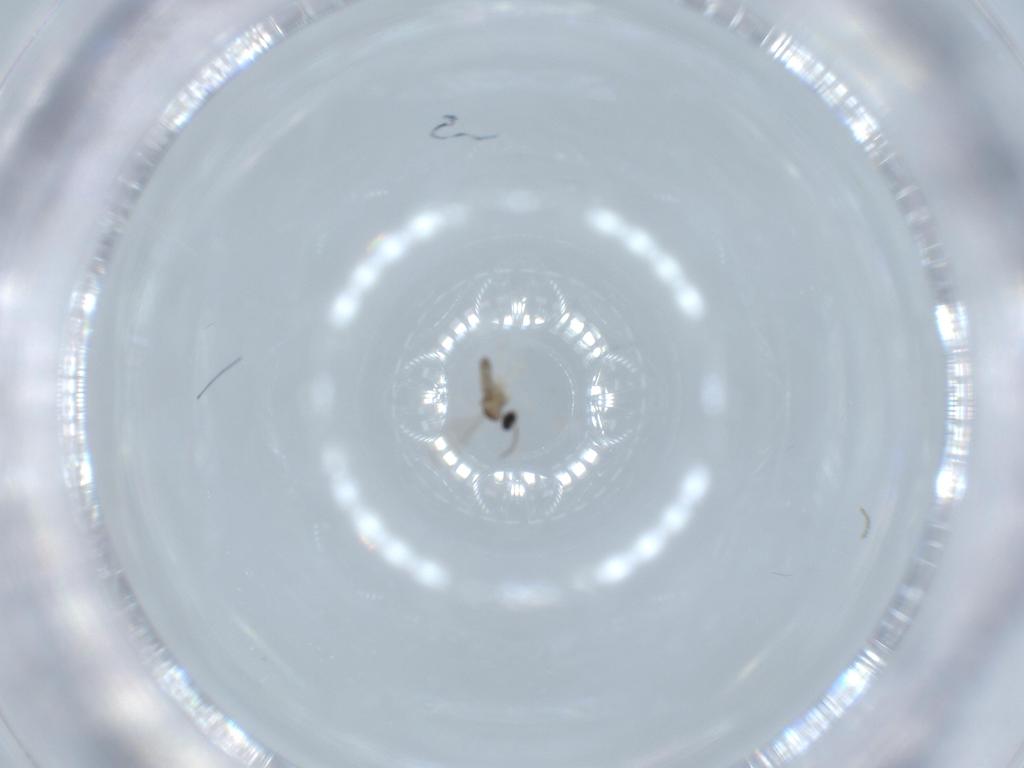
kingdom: Animalia
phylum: Arthropoda
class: Insecta
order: Diptera
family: Cecidomyiidae
